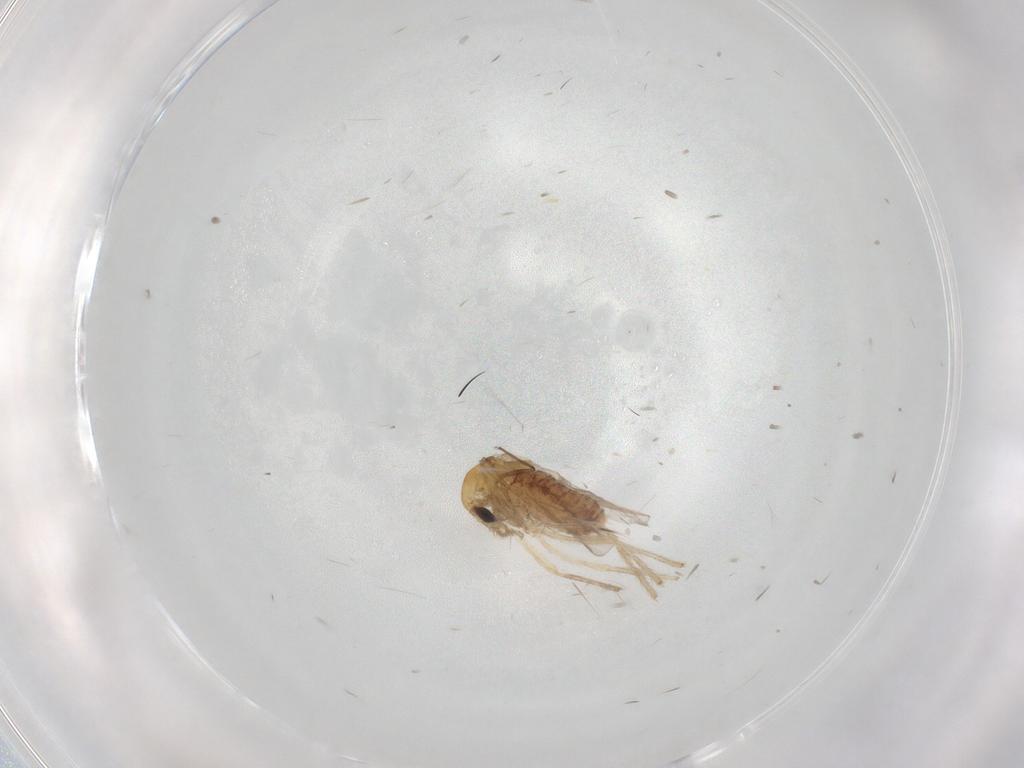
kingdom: Animalia
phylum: Arthropoda
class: Insecta
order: Diptera
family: Chironomidae
